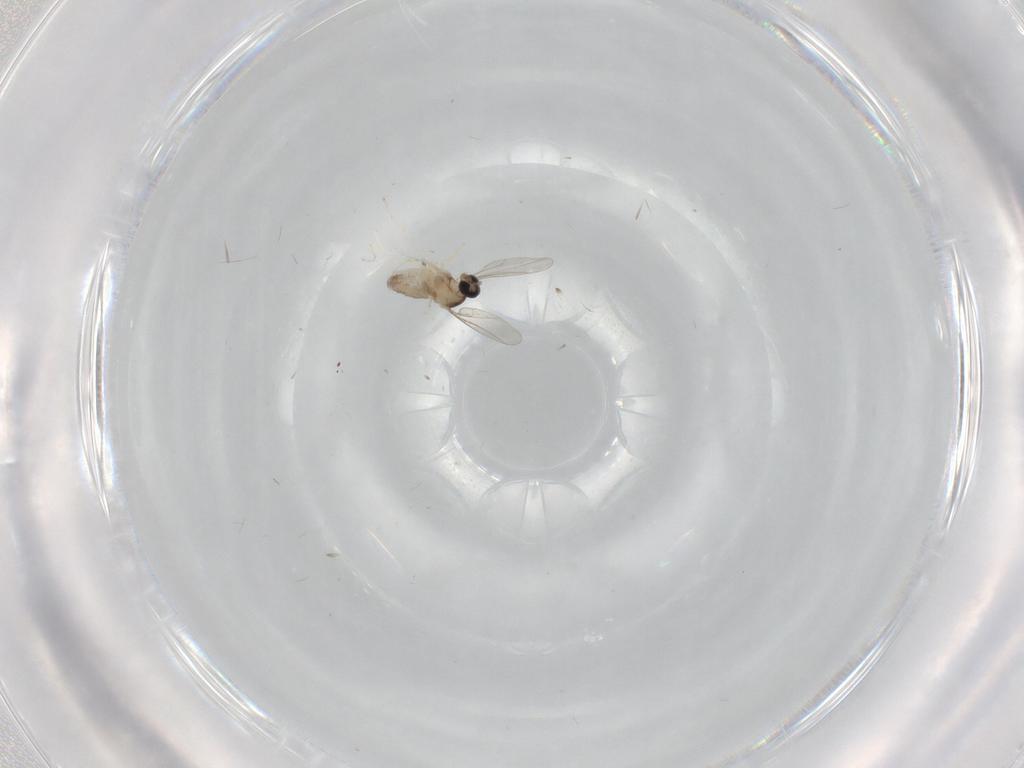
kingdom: Animalia
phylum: Arthropoda
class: Insecta
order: Diptera
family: Cecidomyiidae
